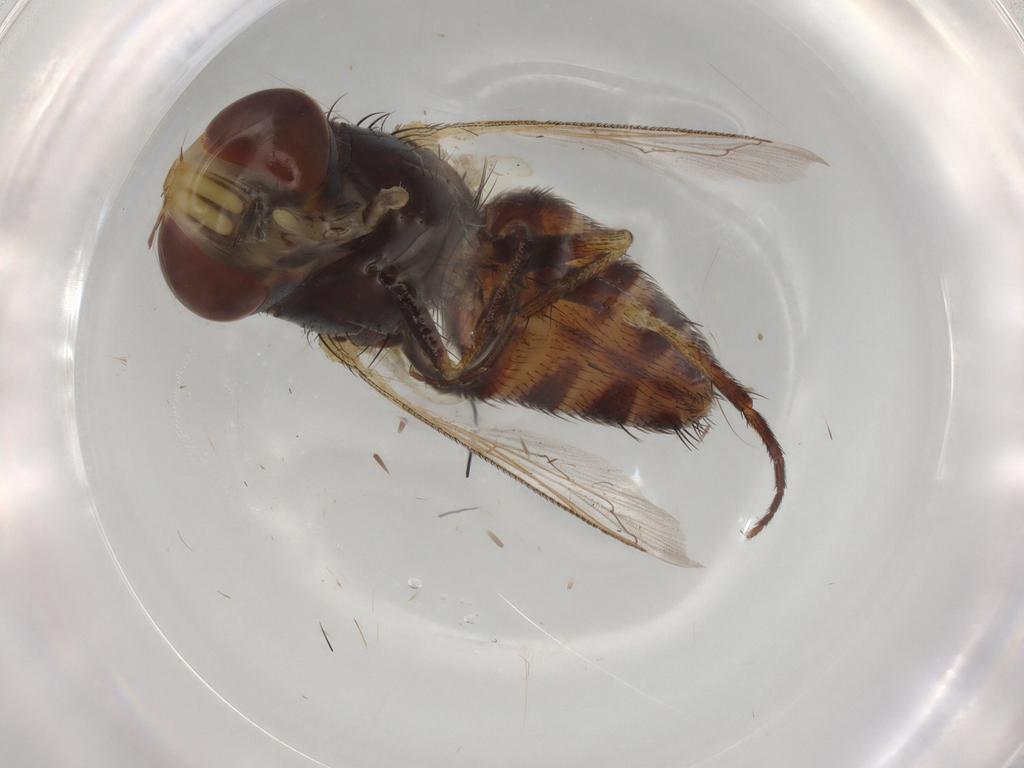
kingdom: Animalia
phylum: Arthropoda
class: Insecta
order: Diptera
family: Sarcophagidae
